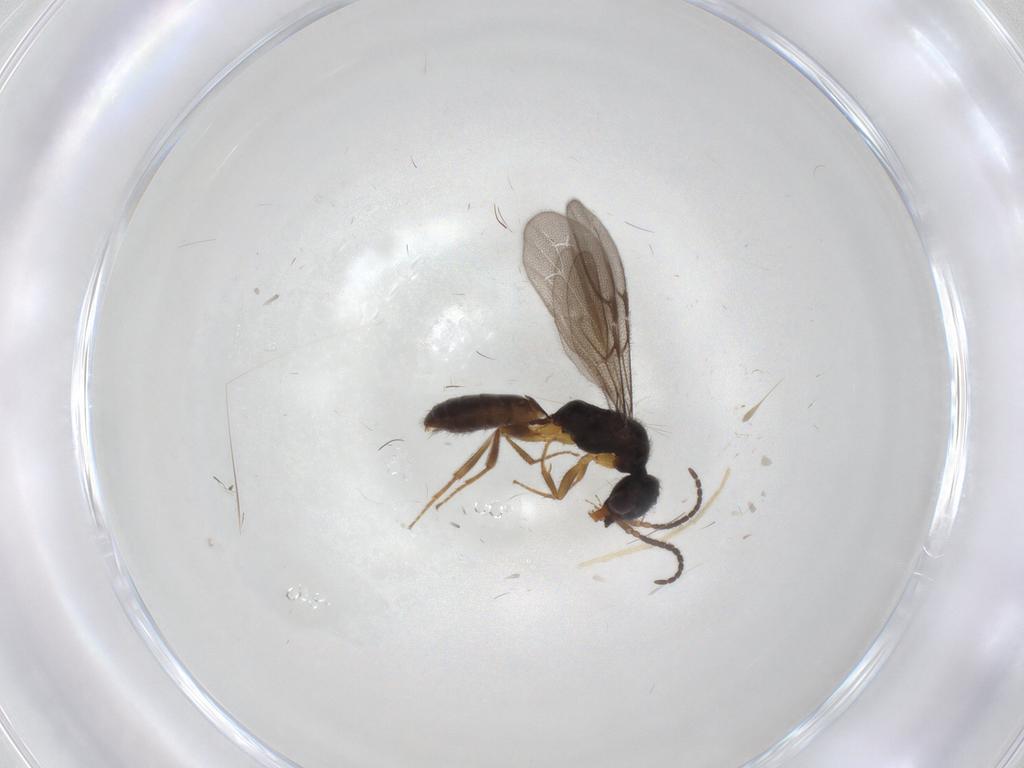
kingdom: Animalia
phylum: Arthropoda
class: Insecta
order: Hymenoptera
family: Bethylidae
